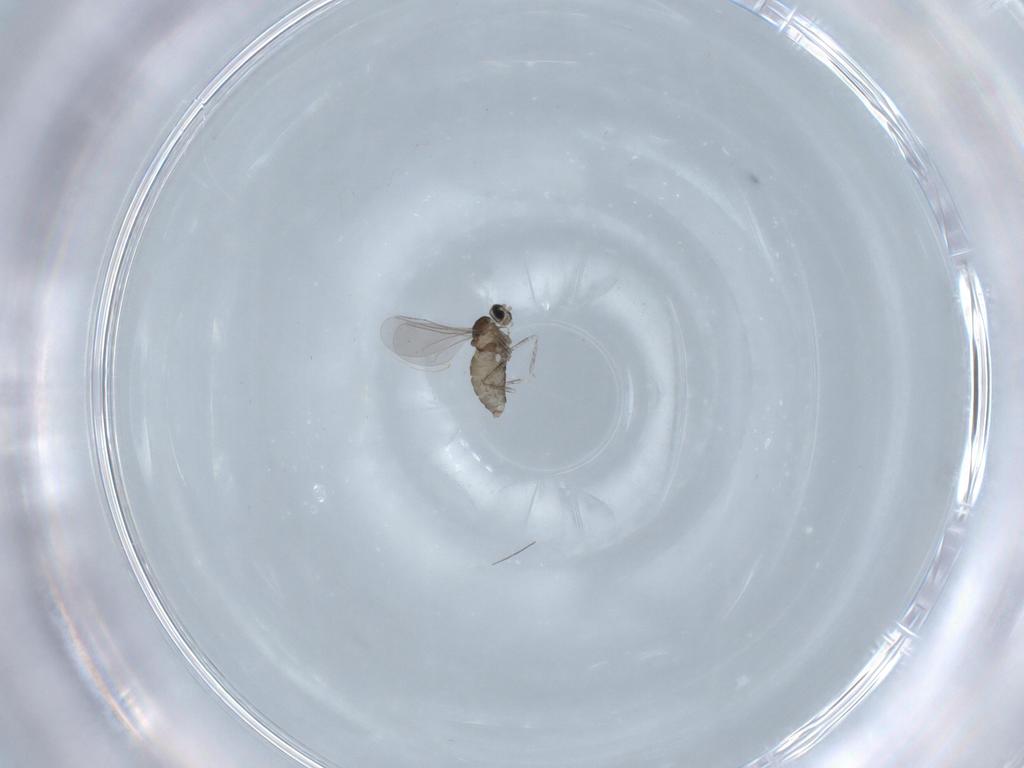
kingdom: Animalia
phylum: Arthropoda
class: Insecta
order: Diptera
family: Cecidomyiidae
